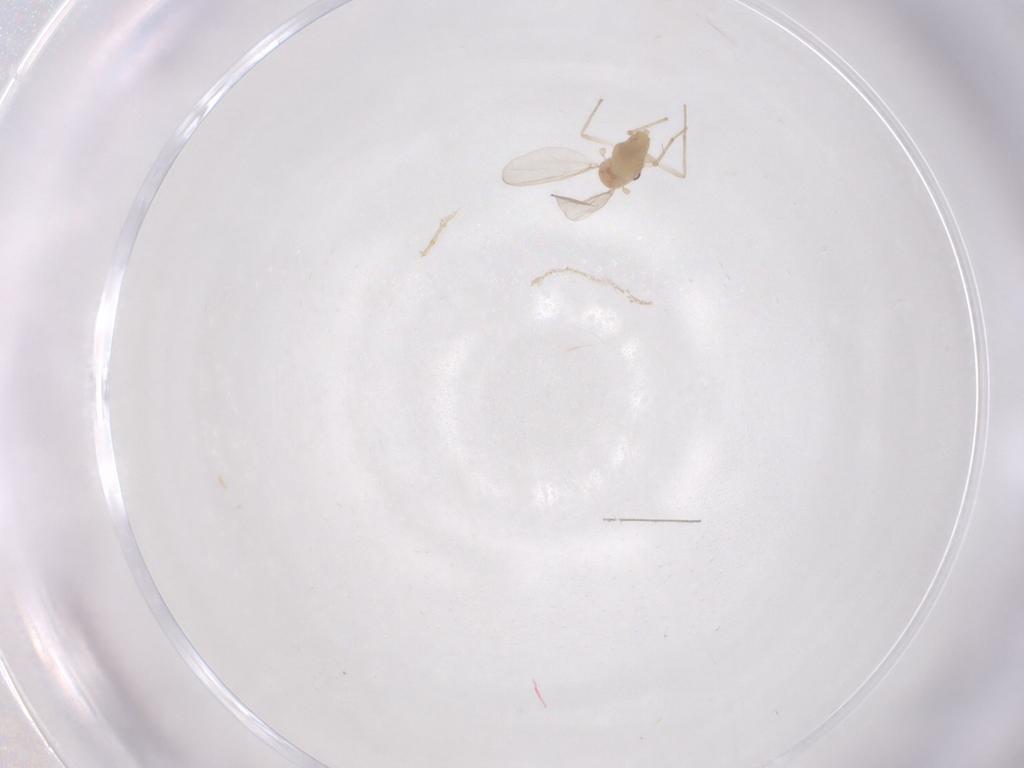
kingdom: Animalia
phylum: Arthropoda
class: Insecta
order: Diptera
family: Chironomidae
